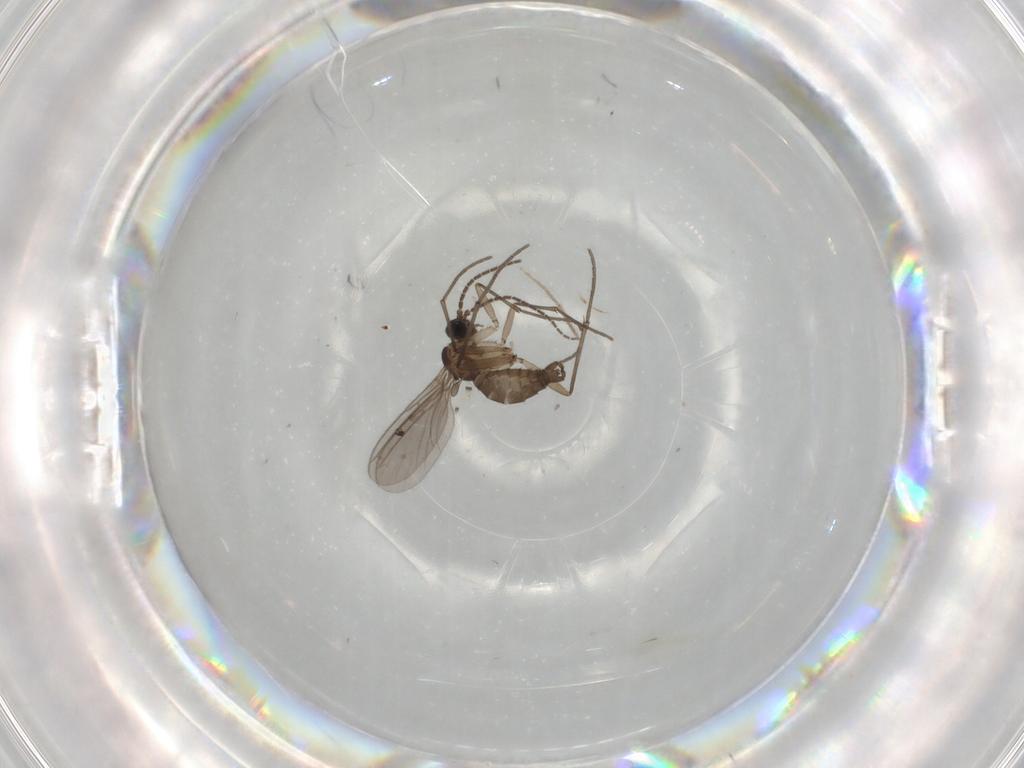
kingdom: Animalia
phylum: Arthropoda
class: Insecta
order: Diptera
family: Sciaridae
